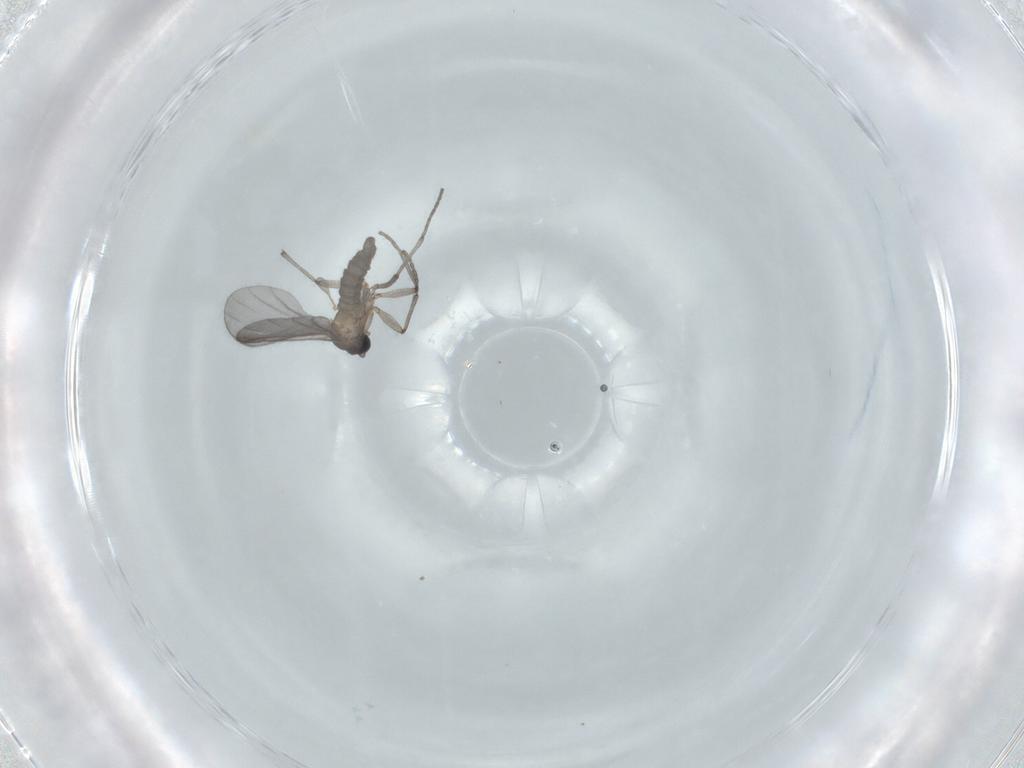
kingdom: Animalia
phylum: Arthropoda
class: Insecta
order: Diptera
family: Sciaridae
